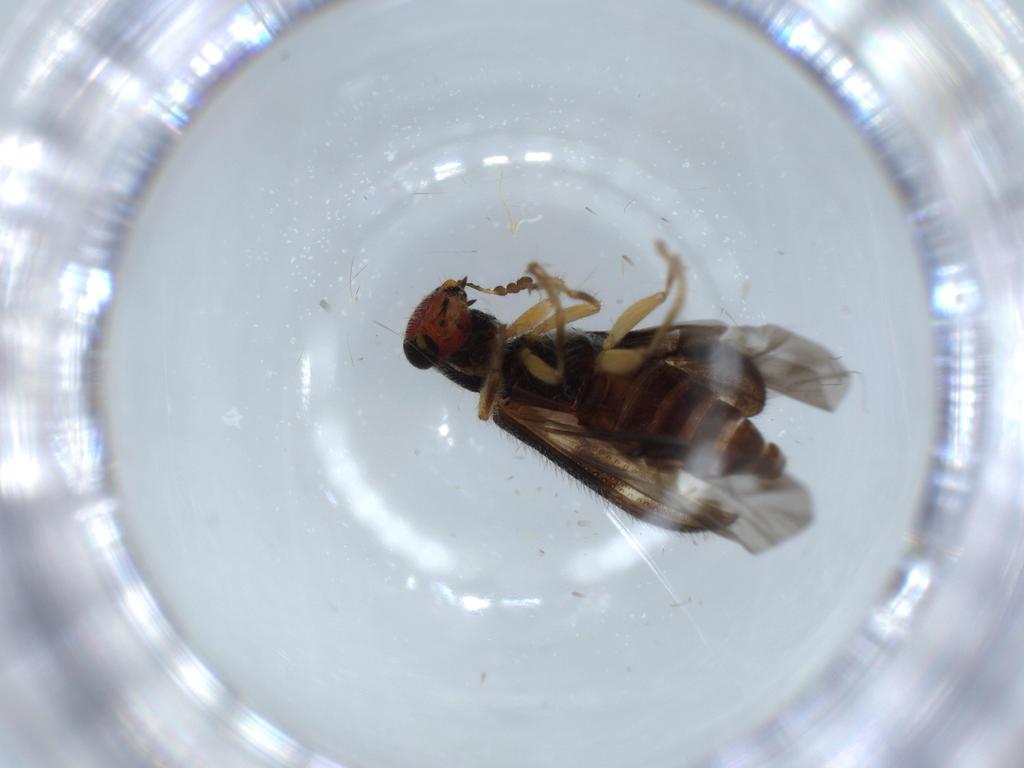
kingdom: Animalia
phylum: Arthropoda
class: Insecta
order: Coleoptera
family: Cleridae
